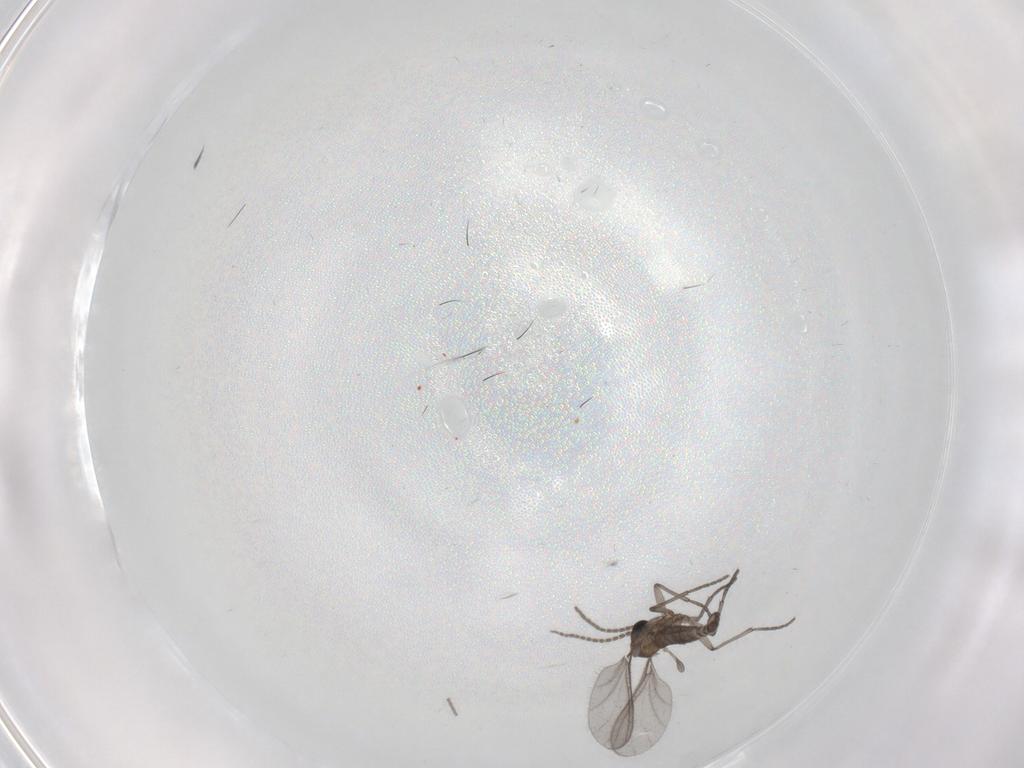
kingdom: Animalia
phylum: Arthropoda
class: Insecta
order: Diptera
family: Sciaridae
